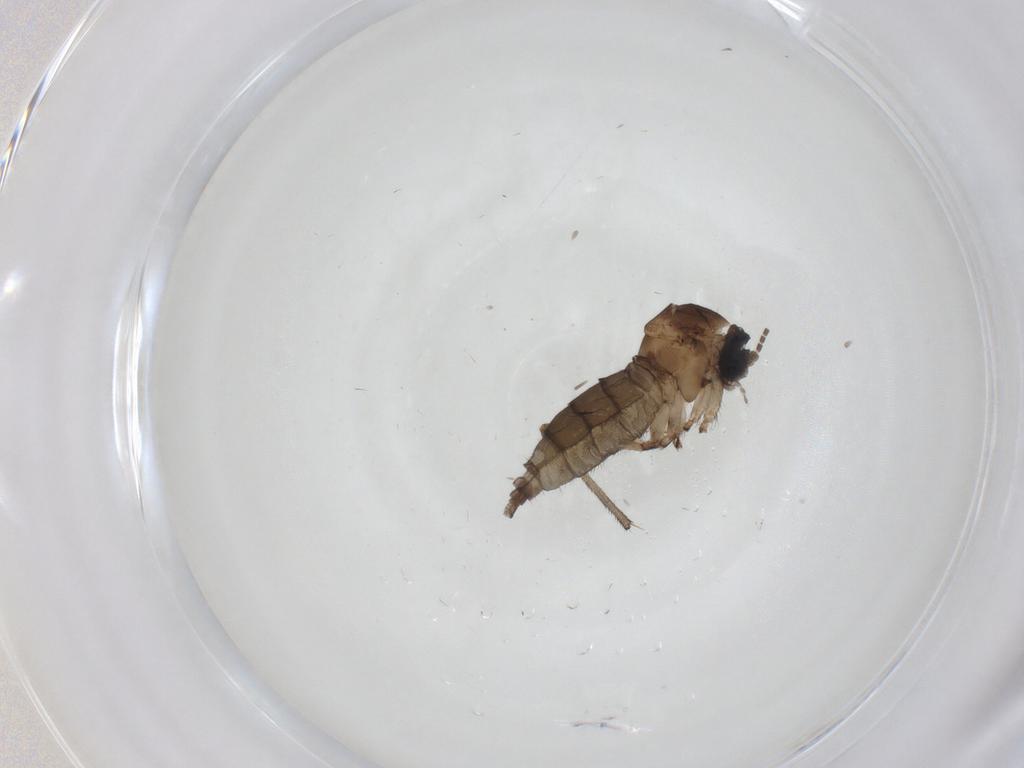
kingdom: Animalia
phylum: Arthropoda
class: Insecta
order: Diptera
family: Sciaridae
